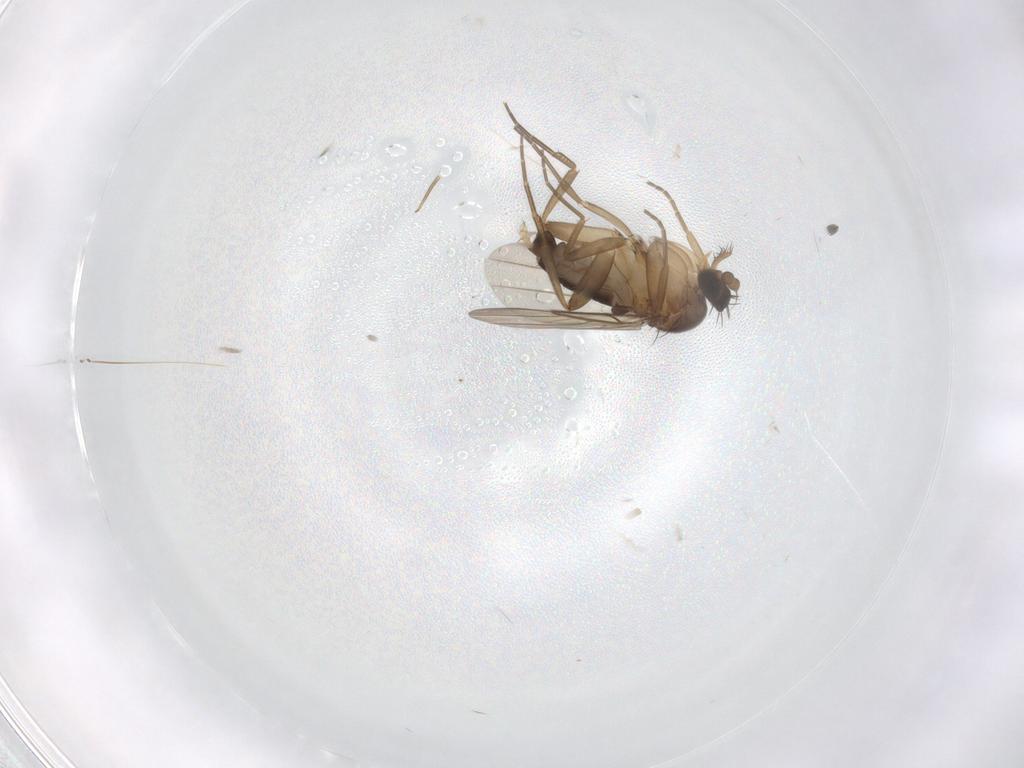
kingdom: Animalia
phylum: Arthropoda
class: Insecta
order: Diptera
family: Phoridae
